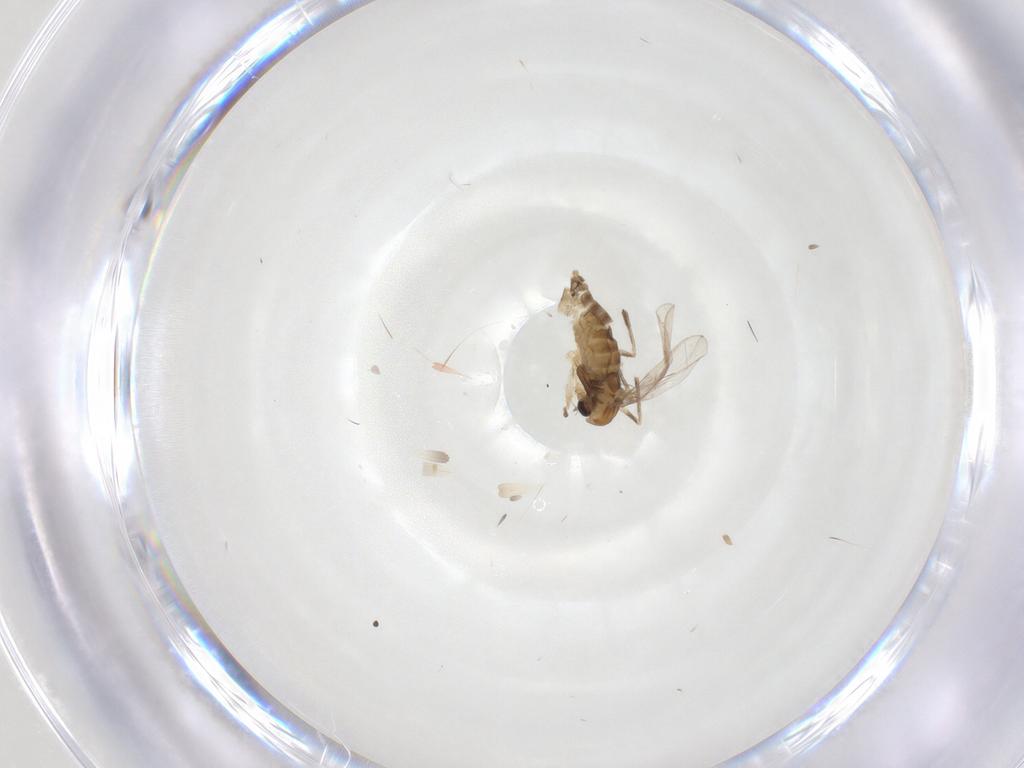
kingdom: Animalia
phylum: Arthropoda
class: Insecta
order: Diptera
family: Chironomidae
